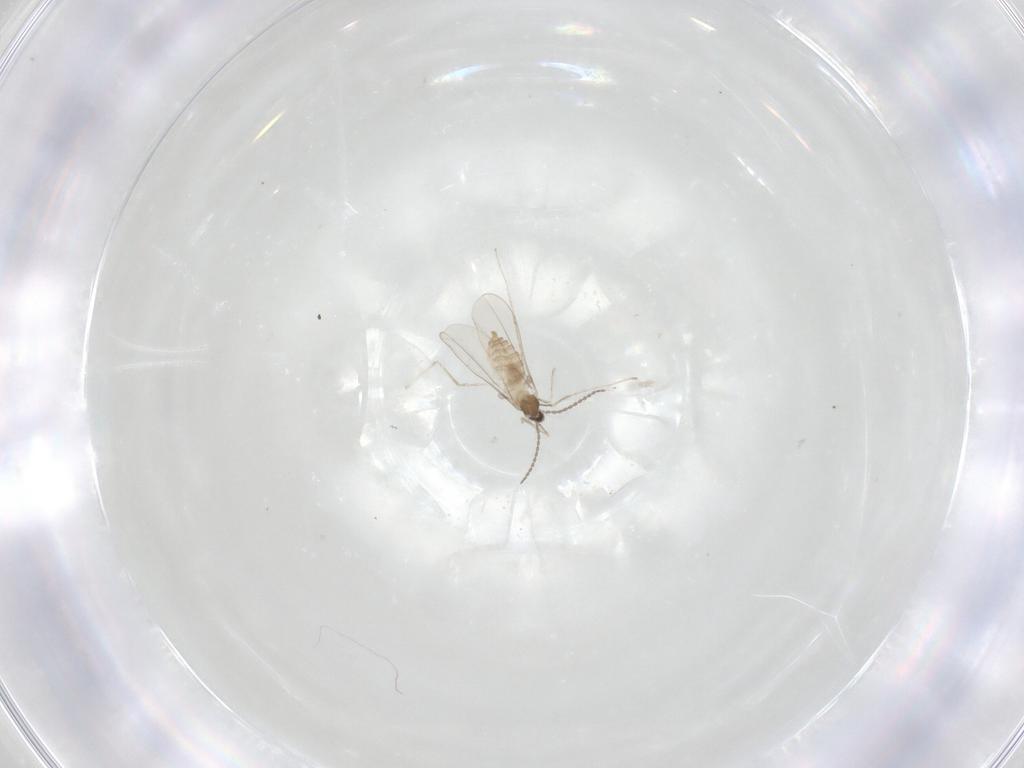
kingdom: Animalia
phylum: Arthropoda
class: Insecta
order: Diptera
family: Cecidomyiidae
